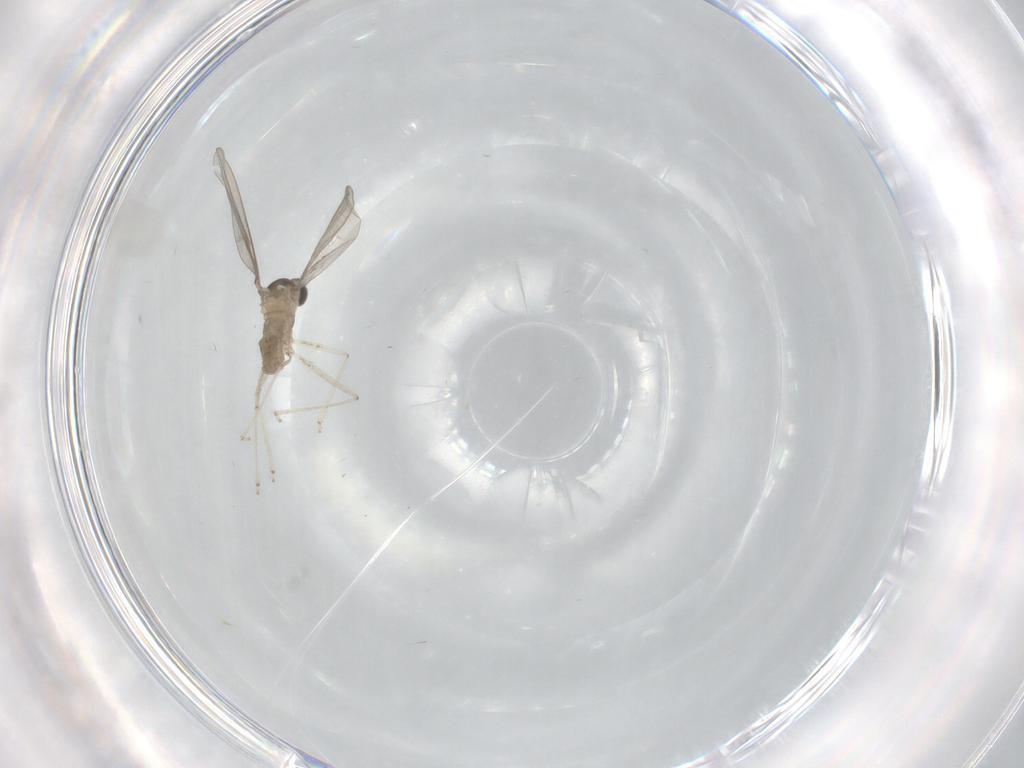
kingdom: Animalia
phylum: Arthropoda
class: Insecta
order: Diptera
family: Cecidomyiidae
